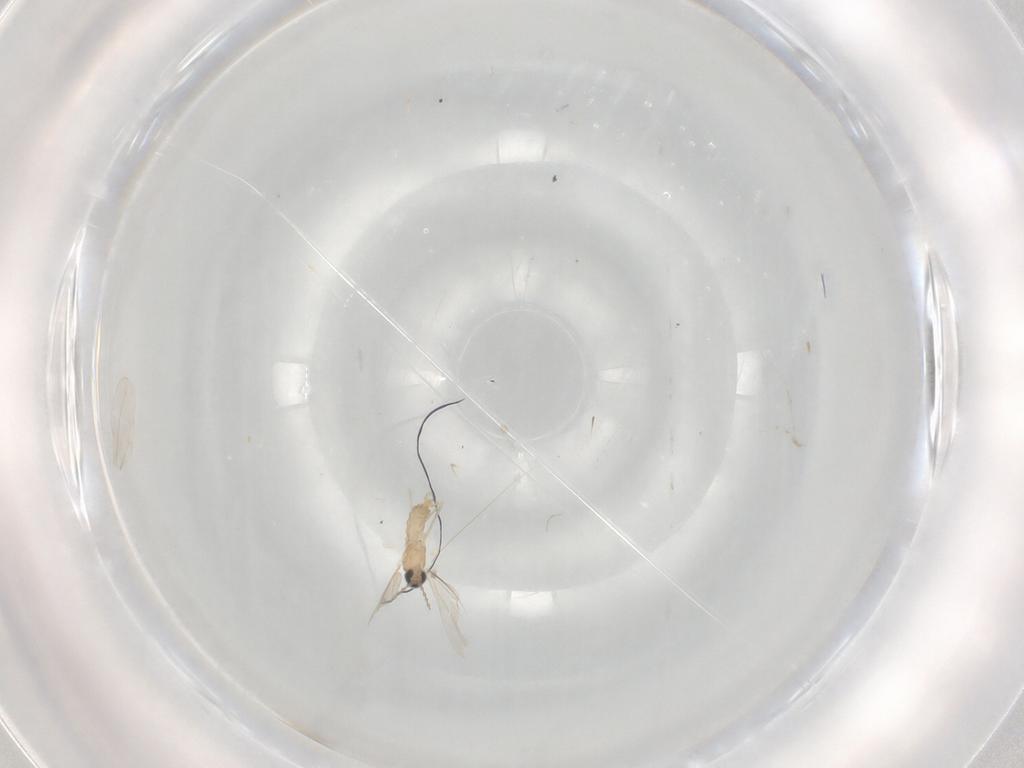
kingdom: Animalia
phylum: Arthropoda
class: Insecta
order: Diptera
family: Cecidomyiidae
